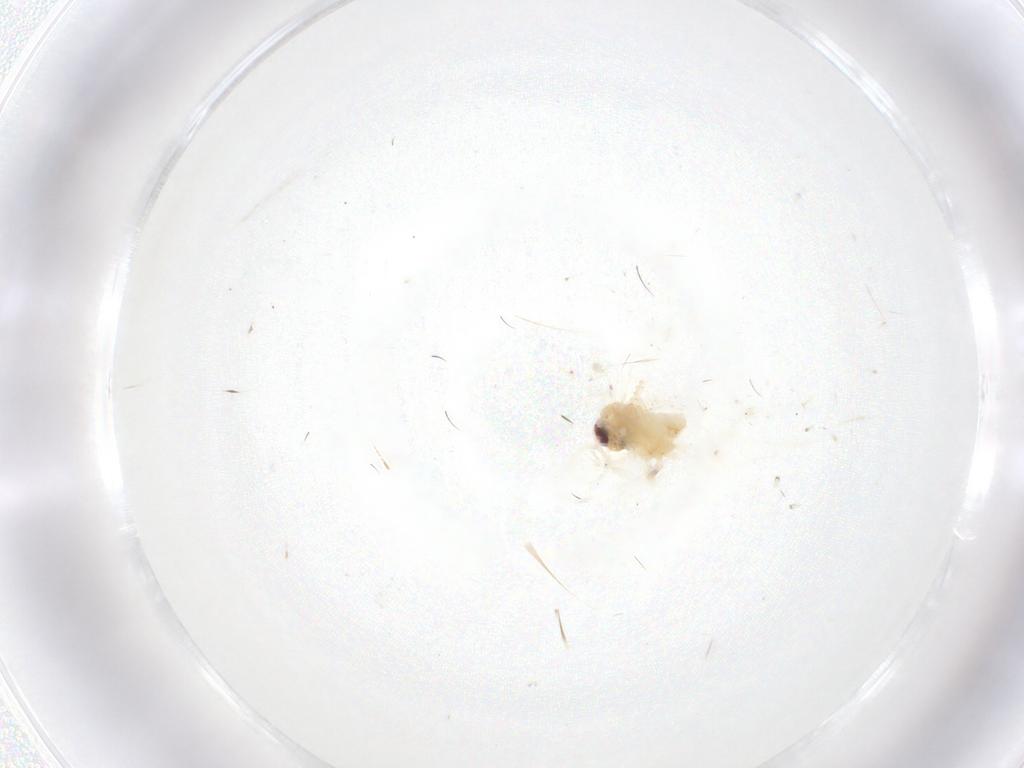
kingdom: Animalia
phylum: Arthropoda
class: Insecta
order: Lepidoptera
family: Gelechiidae
